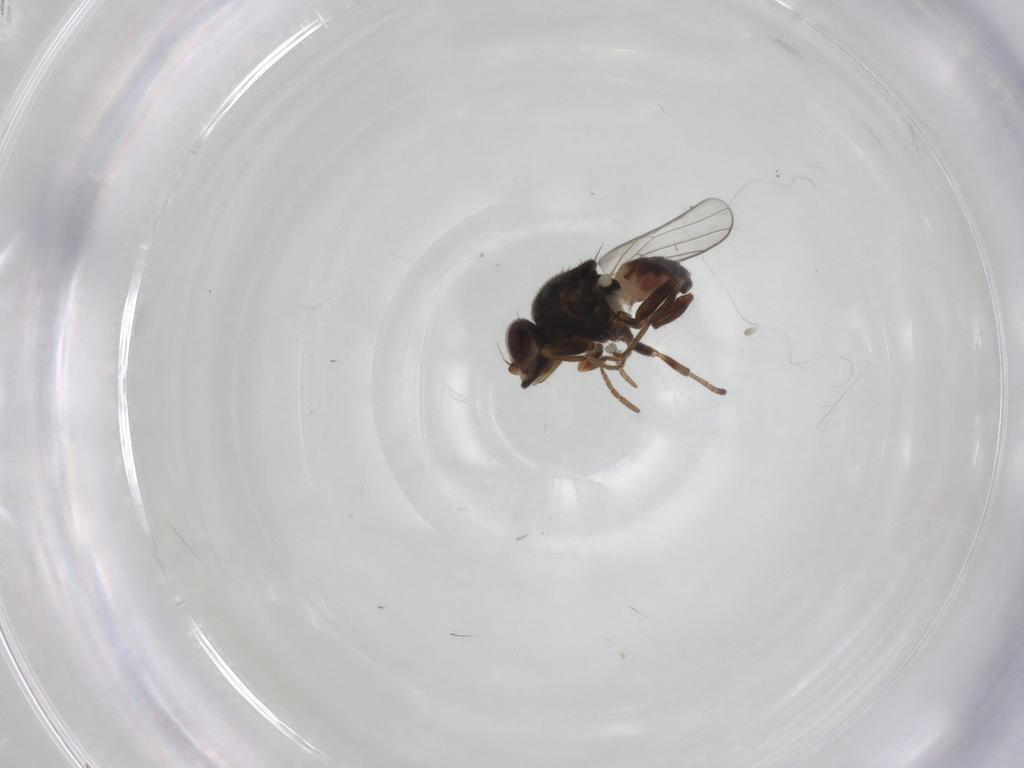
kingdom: Animalia
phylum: Arthropoda
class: Insecta
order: Diptera
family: Chloropidae
